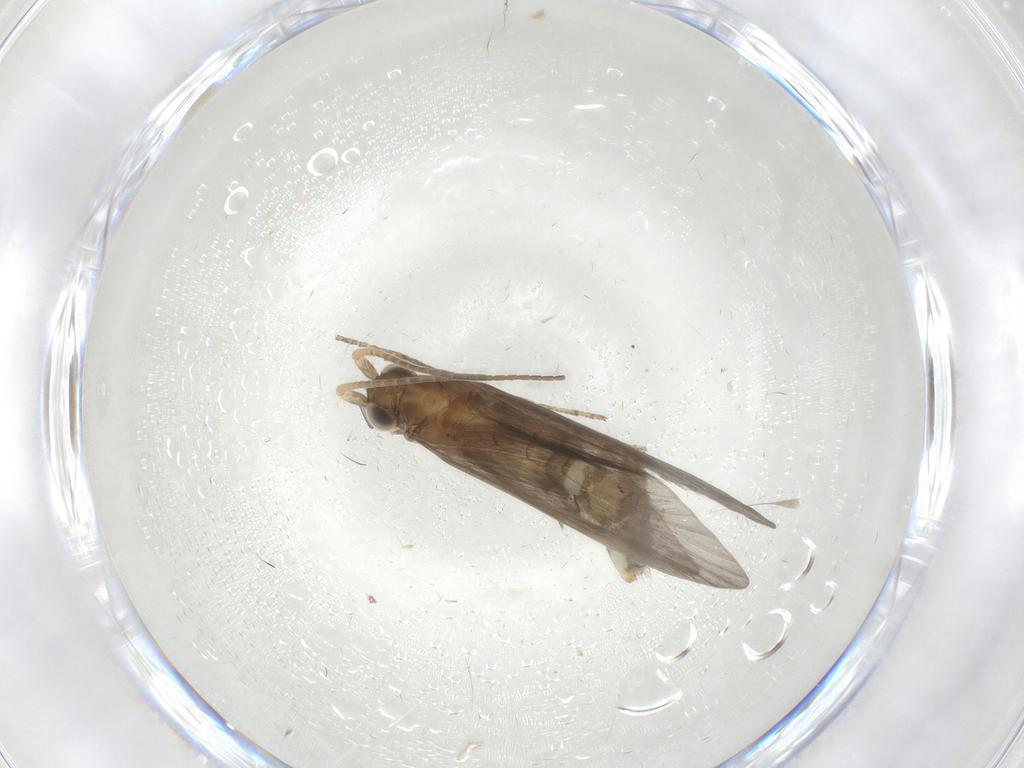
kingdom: Animalia
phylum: Arthropoda
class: Insecta
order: Trichoptera
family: Helicopsychidae
